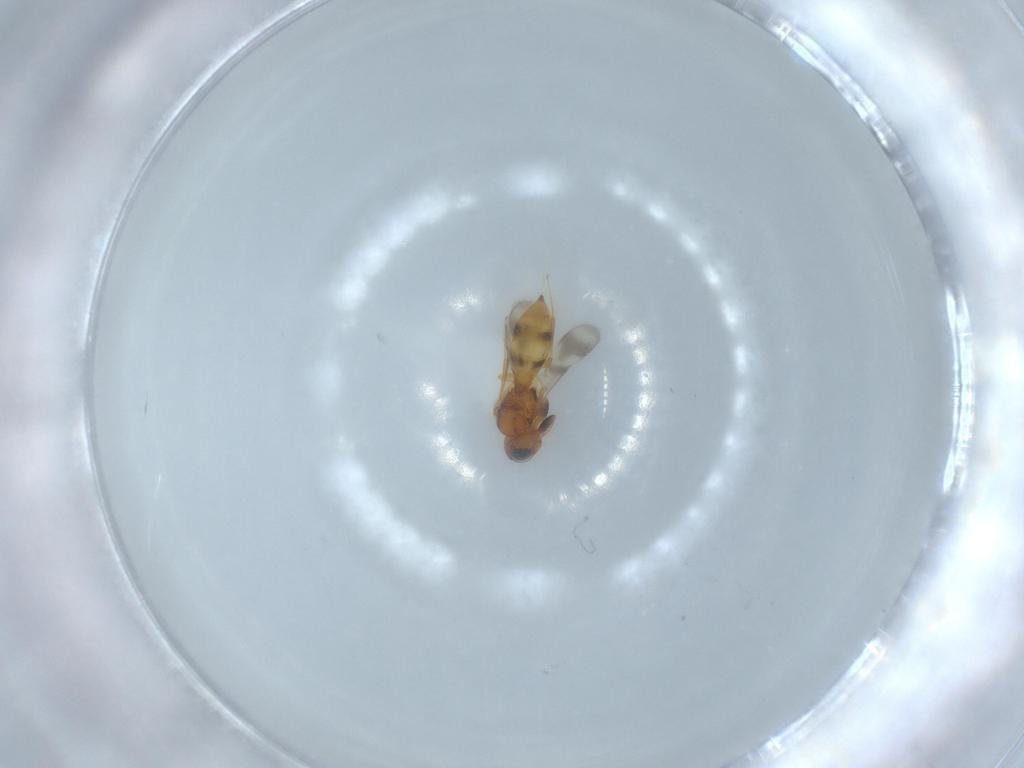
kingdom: Animalia
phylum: Arthropoda
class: Insecta
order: Hymenoptera
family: Scelionidae
